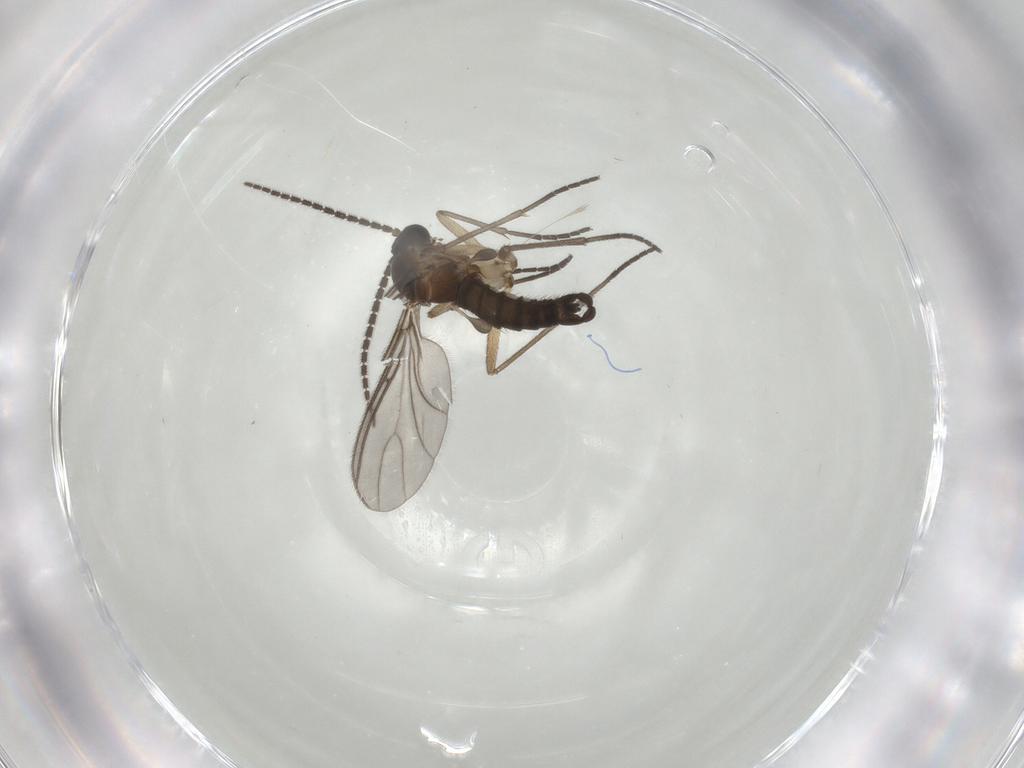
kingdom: Animalia
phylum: Arthropoda
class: Insecta
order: Diptera
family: Sciaridae
